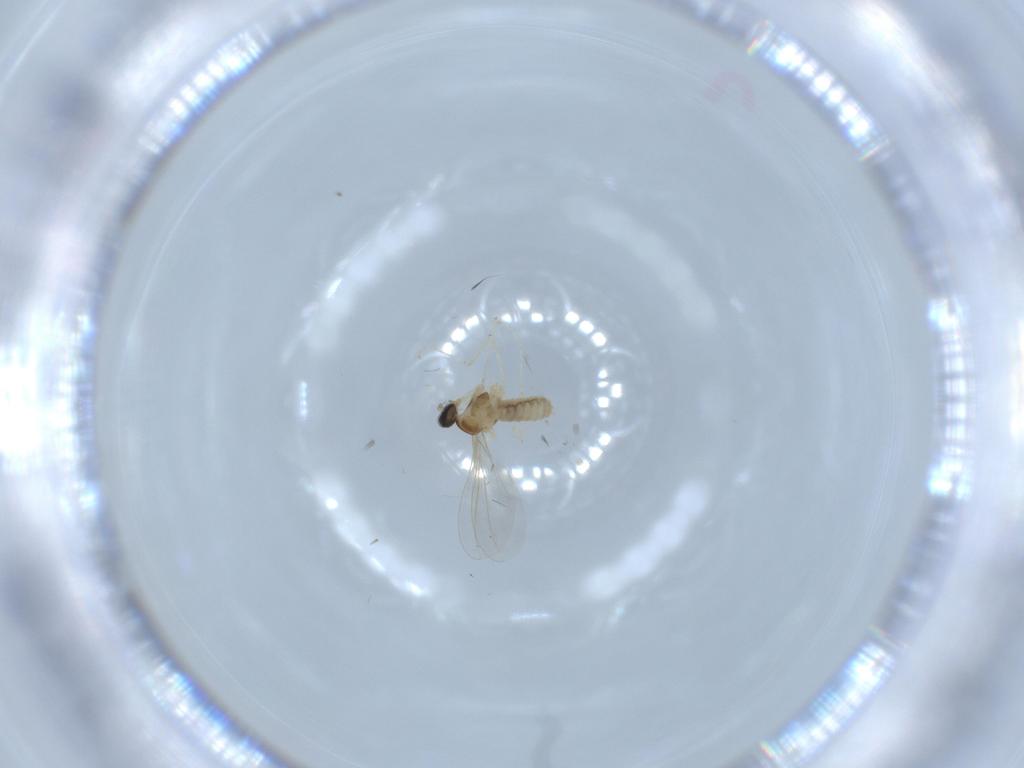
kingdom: Animalia
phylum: Arthropoda
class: Insecta
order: Diptera
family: Cecidomyiidae
